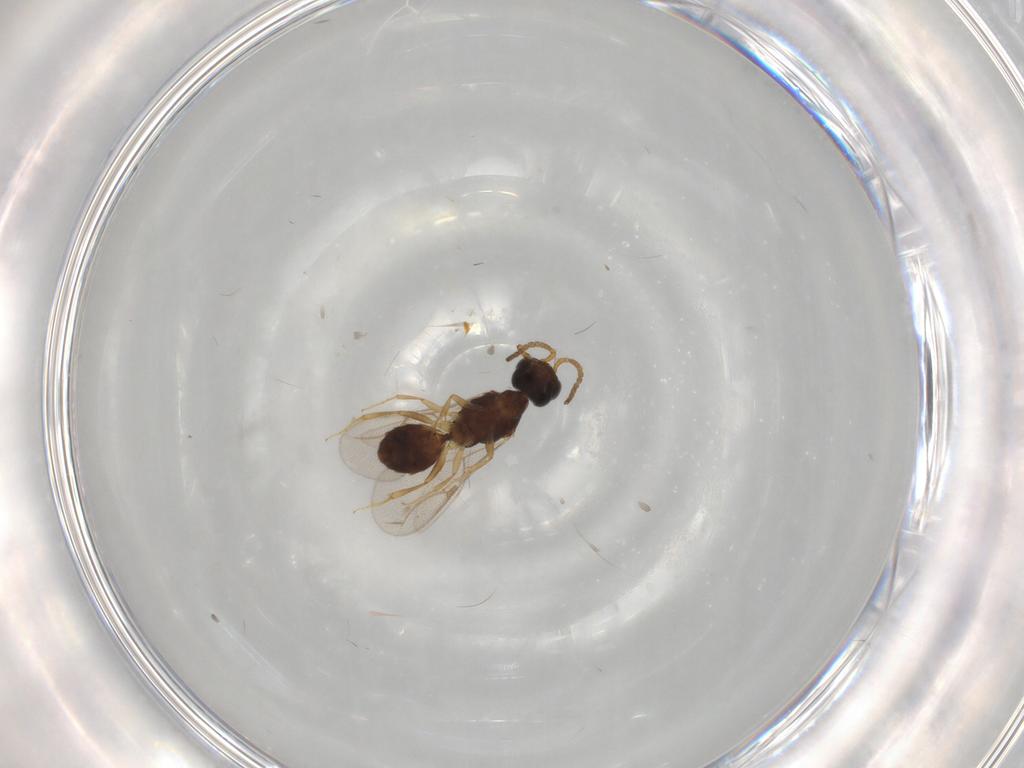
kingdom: Animalia
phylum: Arthropoda
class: Insecta
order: Hymenoptera
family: Bethylidae
